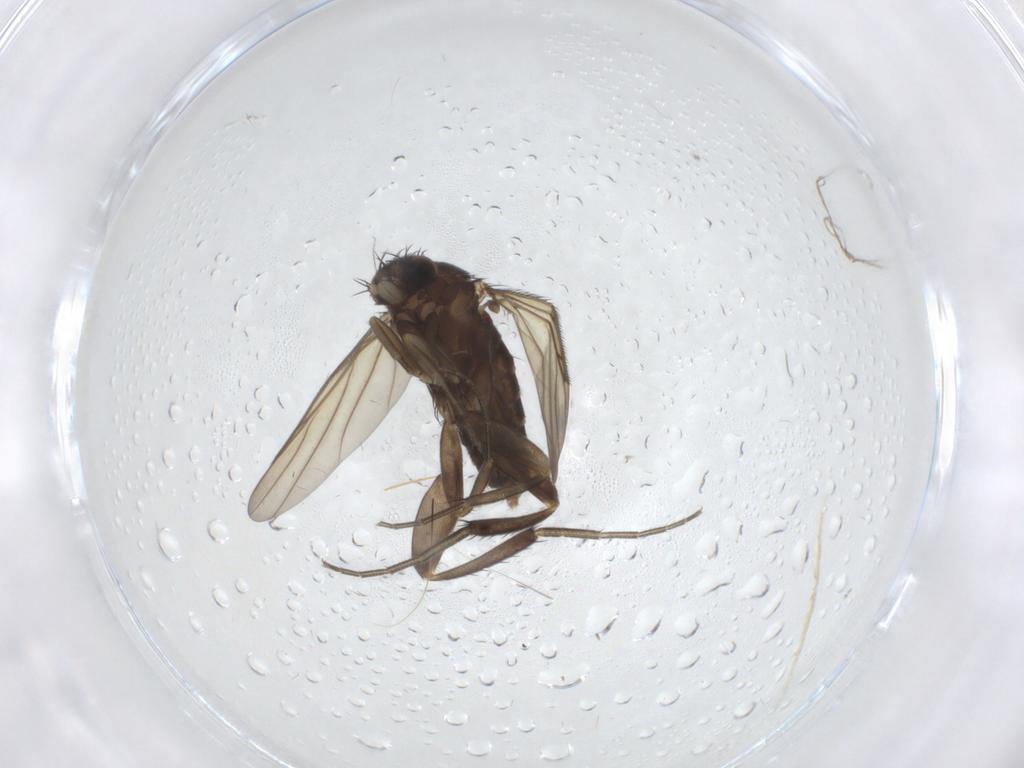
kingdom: Animalia
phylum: Arthropoda
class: Insecta
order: Diptera
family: Phoridae
